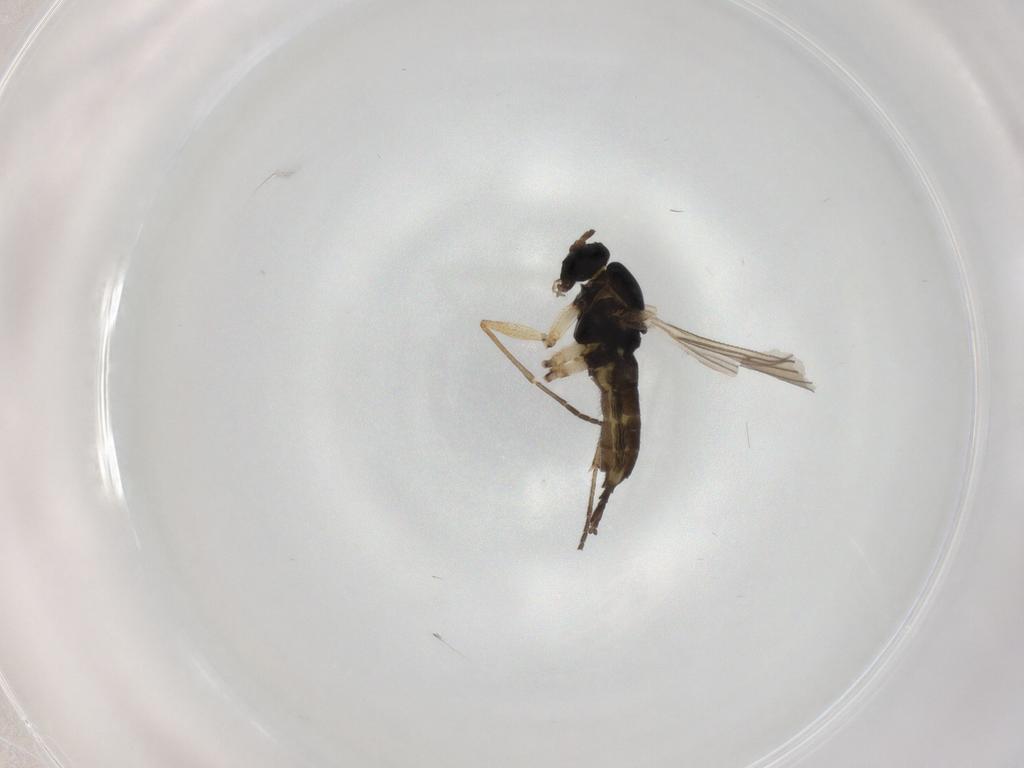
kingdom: Animalia
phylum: Arthropoda
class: Insecta
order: Diptera
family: Sciaridae
